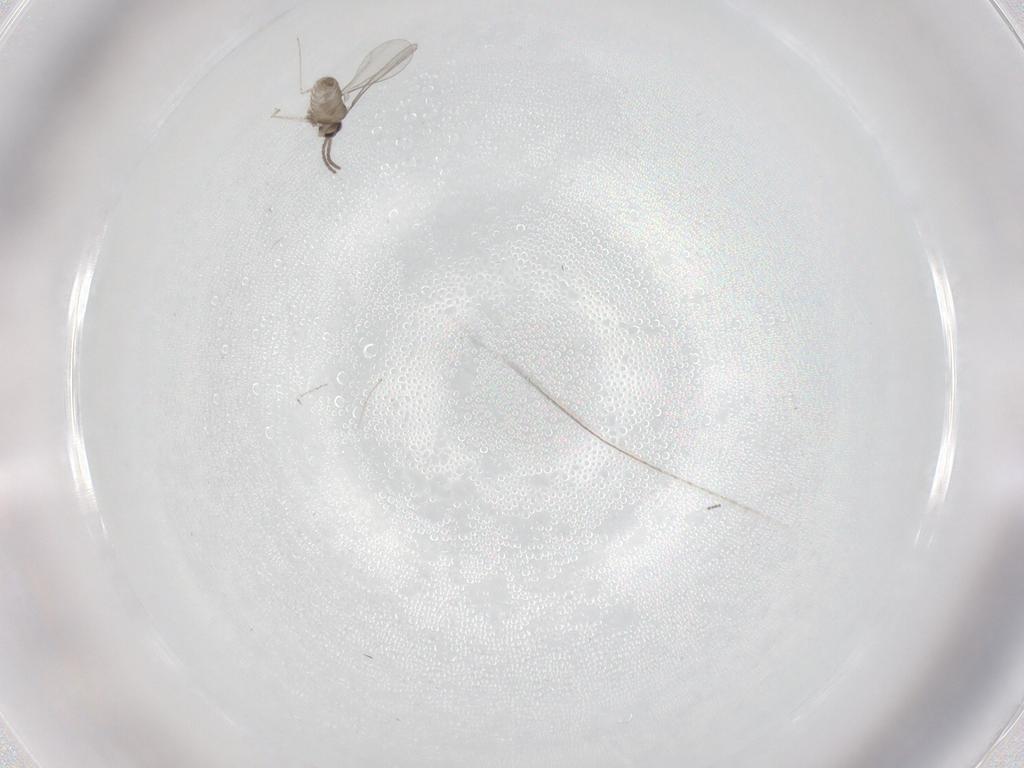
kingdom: Animalia
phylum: Arthropoda
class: Insecta
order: Diptera
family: Cecidomyiidae
